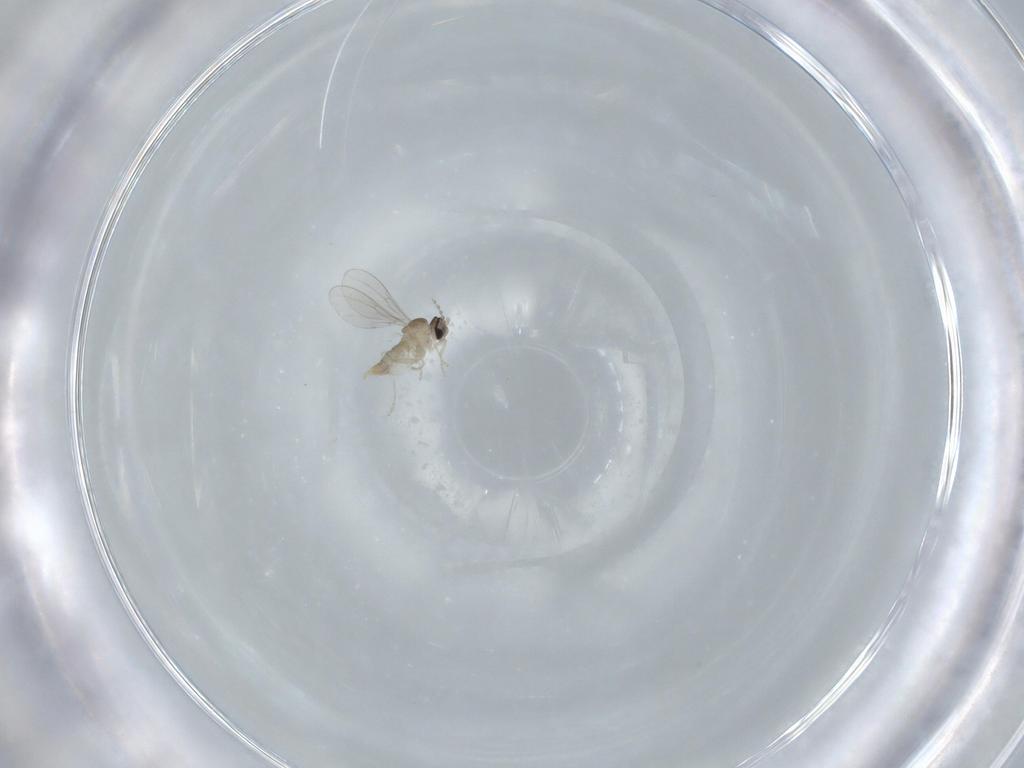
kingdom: Animalia
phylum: Arthropoda
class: Insecta
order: Diptera
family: Cecidomyiidae
